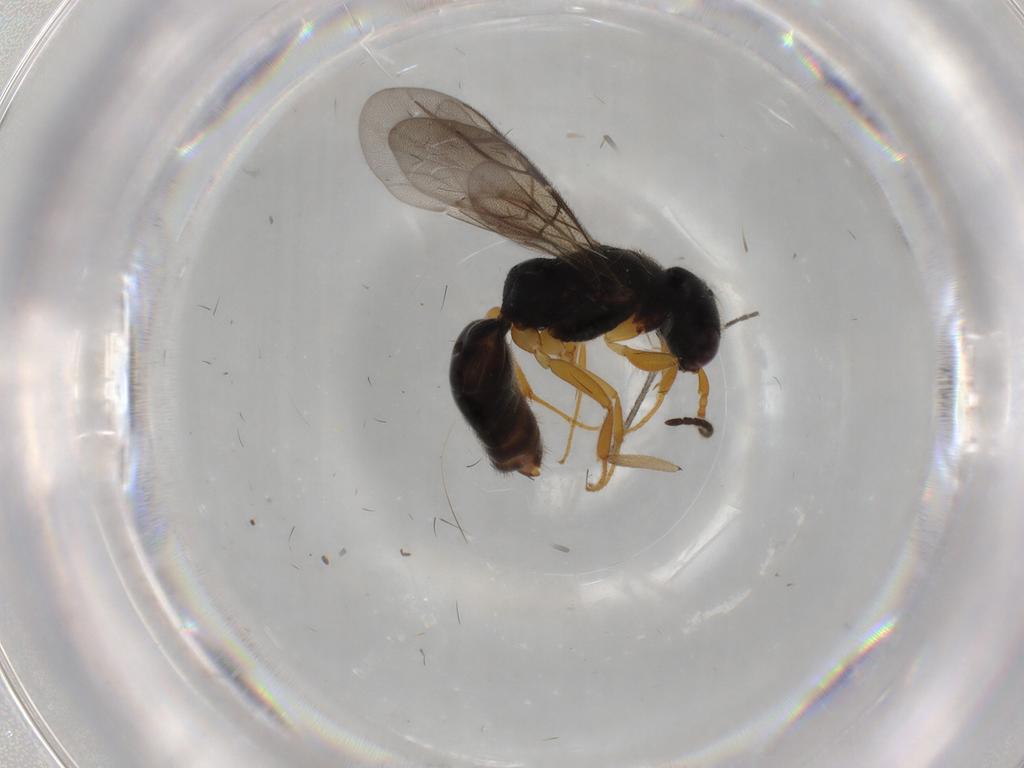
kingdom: Animalia
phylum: Arthropoda
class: Insecta
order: Hymenoptera
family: Bethylidae
